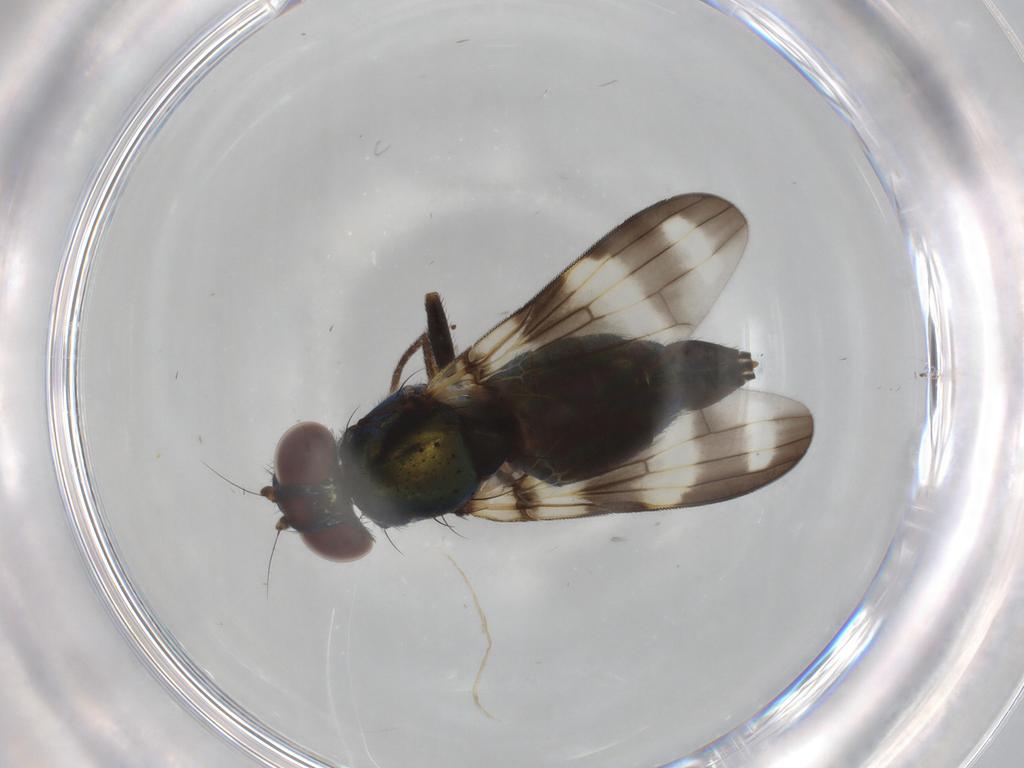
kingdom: Animalia
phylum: Arthropoda
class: Insecta
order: Diptera
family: Ulidiidae
